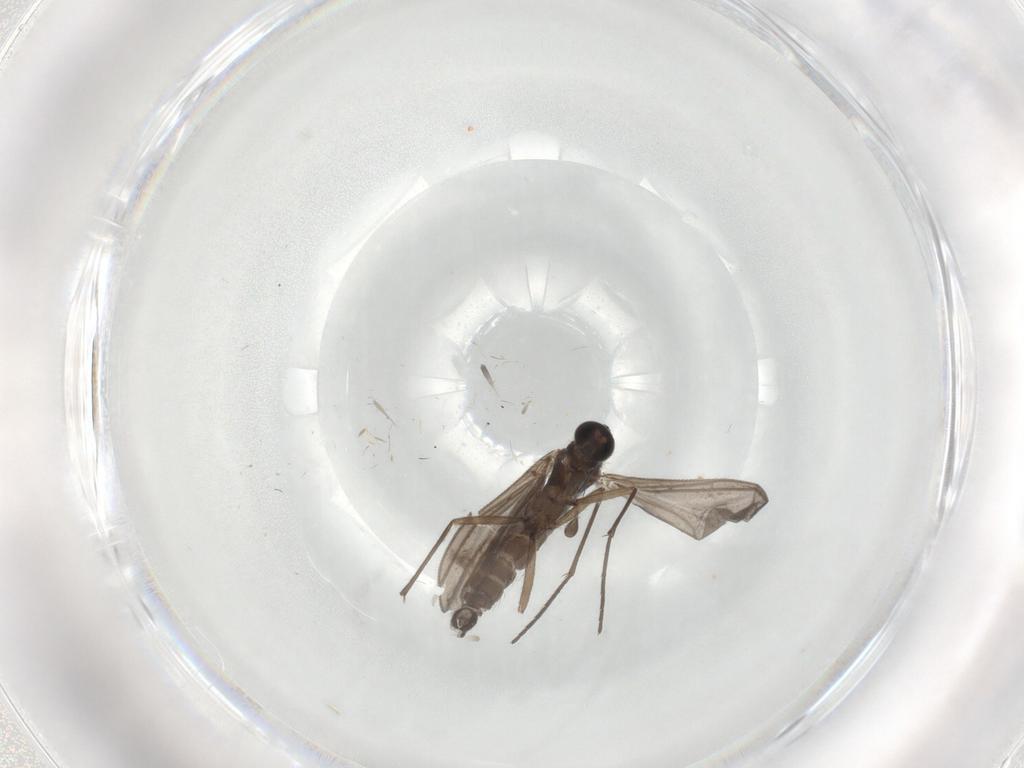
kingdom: Animalia
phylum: Arthropoda
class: Insecta
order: Diptera
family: Sciaridae
